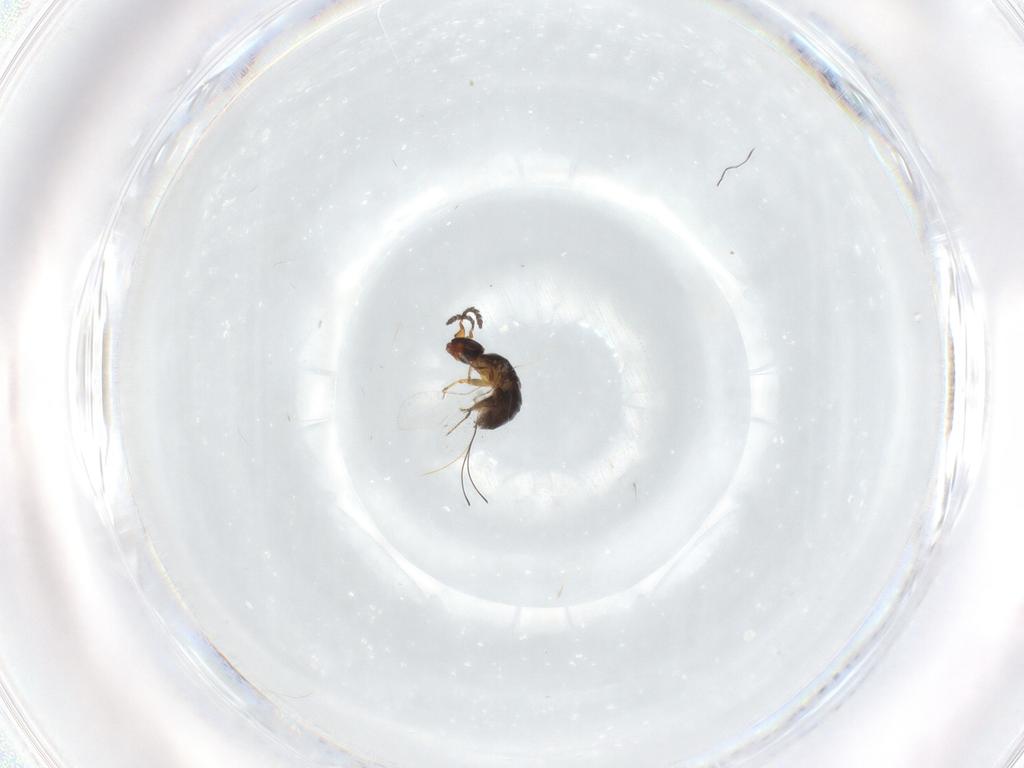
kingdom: Animalia
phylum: Arthropoda
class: Insecta
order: Hymenoptera
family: Agaonidae
